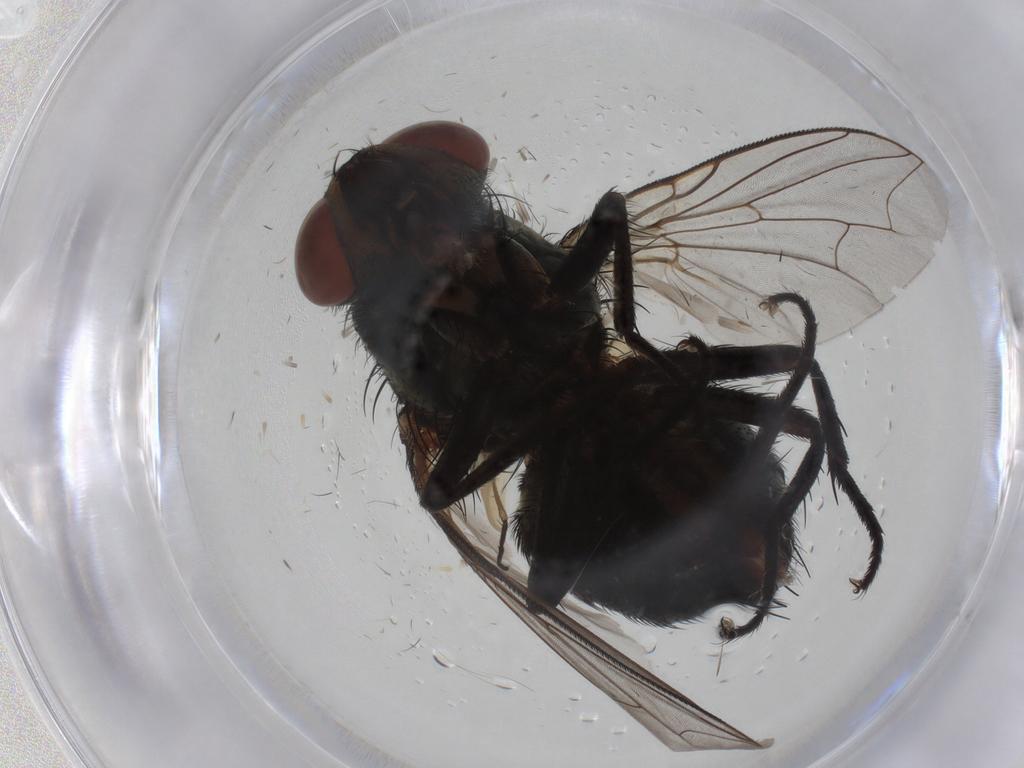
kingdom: Animalia
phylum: Arthropoda
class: Insecta
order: Diptera
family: Sarcophagidae
